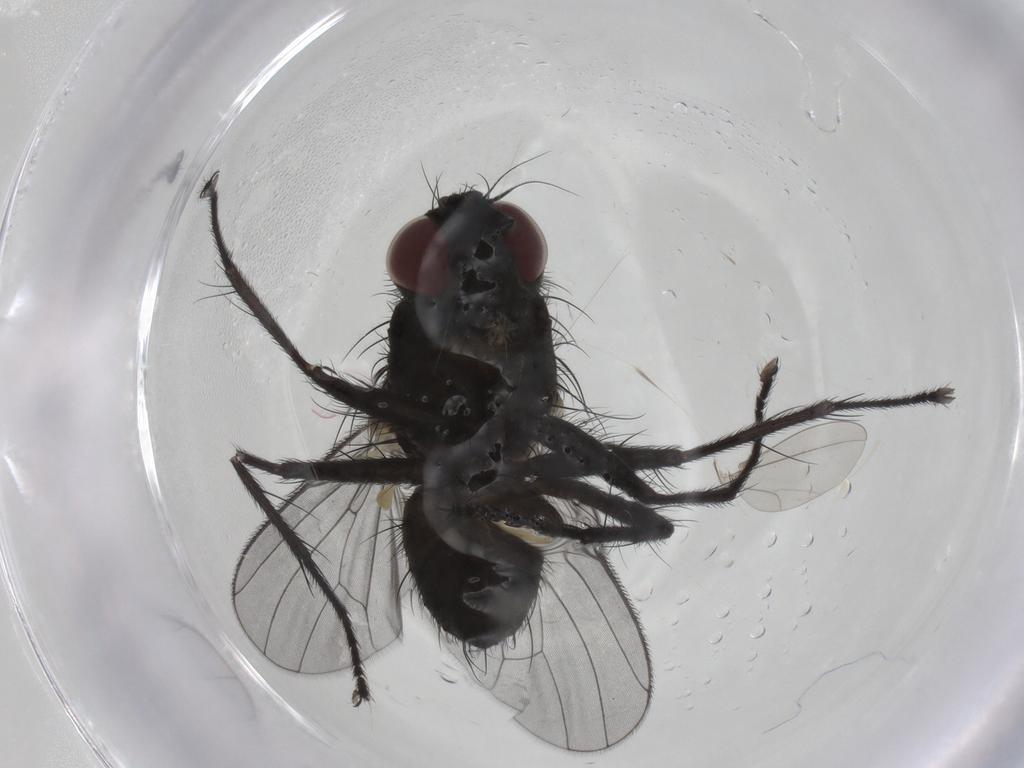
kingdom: Animalia
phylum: Arthropoda
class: Insecta
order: Diptera
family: Muscidae
